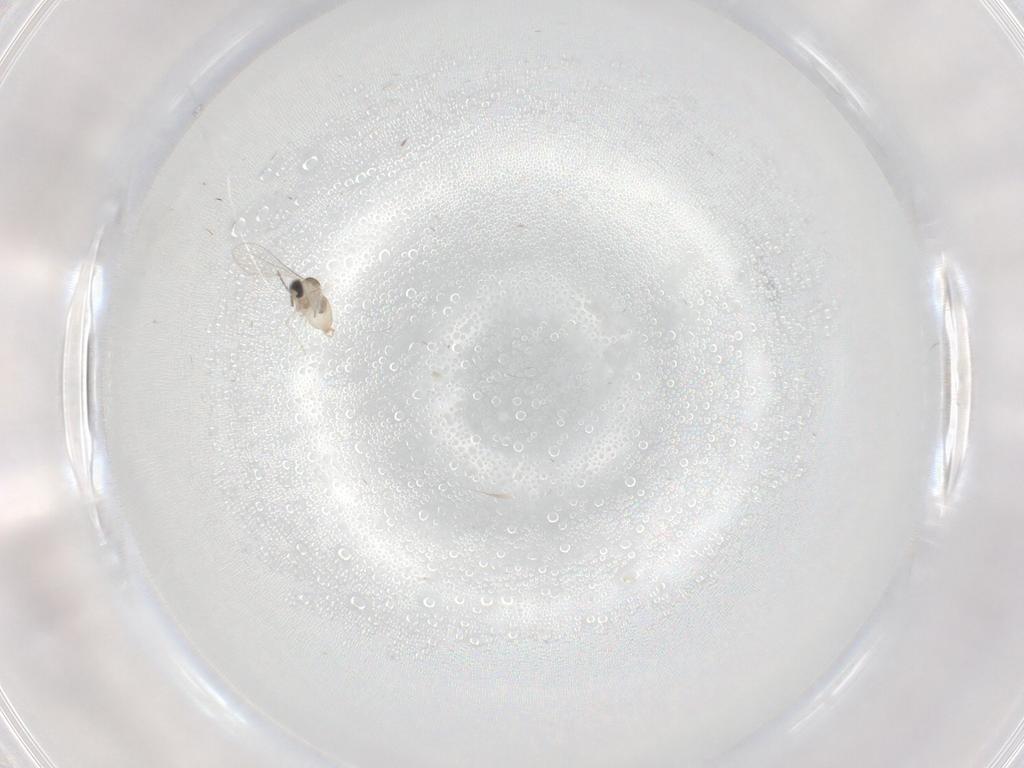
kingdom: Animalia
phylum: Arthropoda
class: Insecta
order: Diptera
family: Cecidomyiidae
